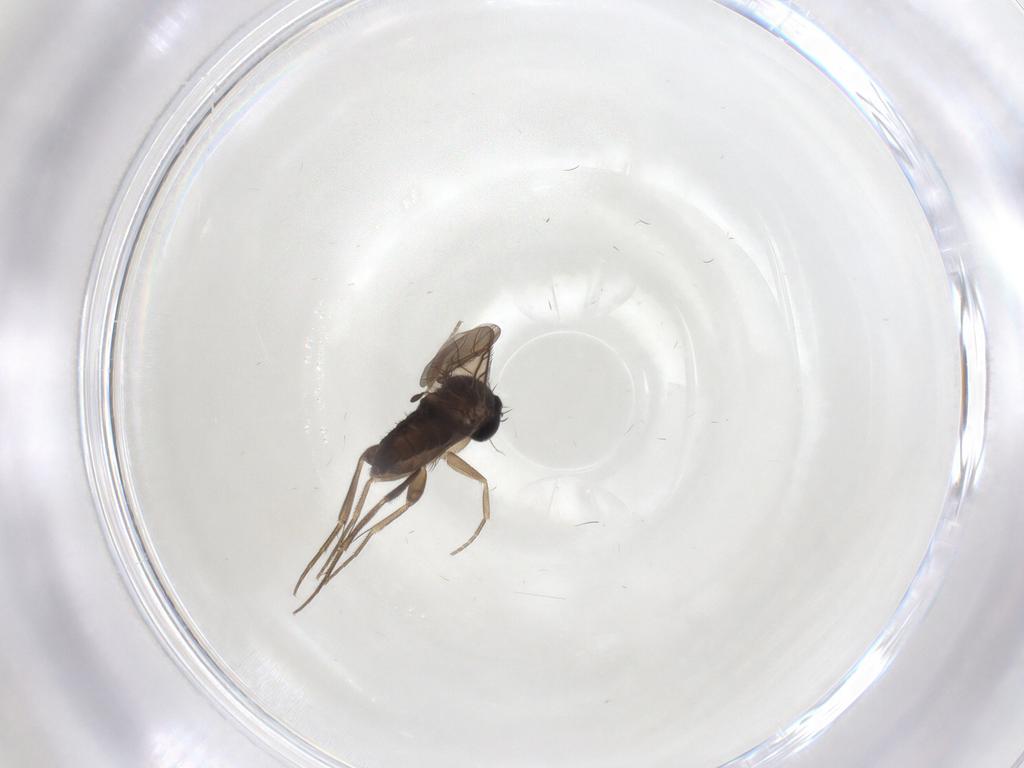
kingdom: Animalia
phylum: Arthropoda
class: Insecta
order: Diptera
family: Phoridae
